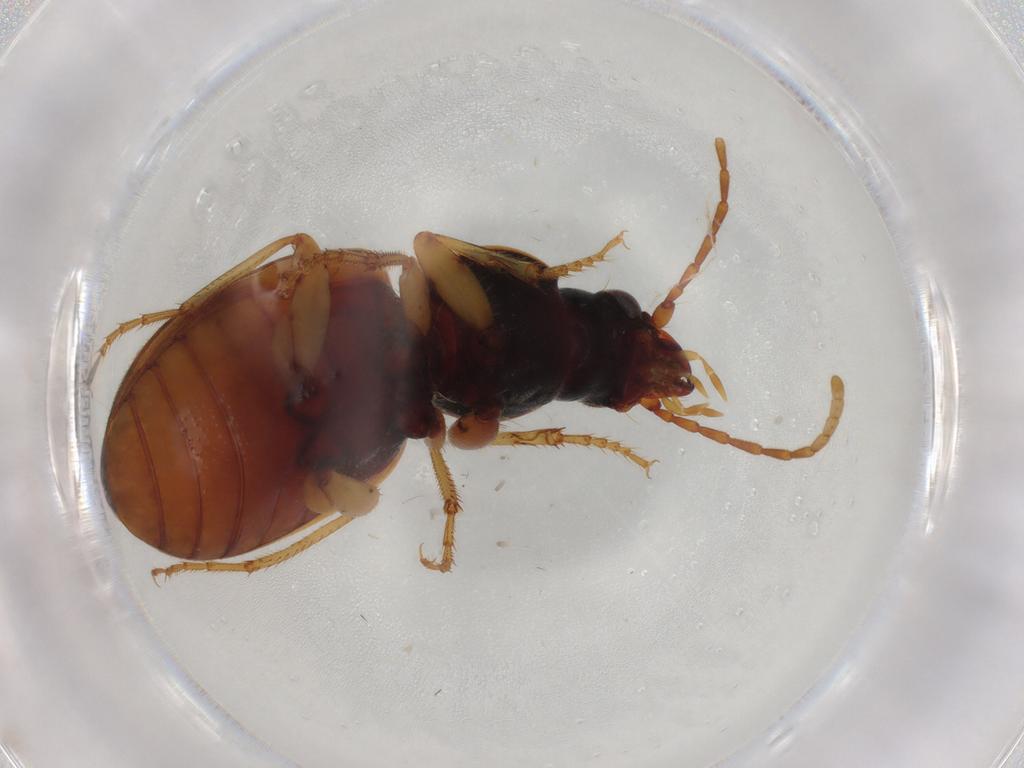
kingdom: Animalia
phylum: Arthropoda
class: Insecta
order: Coleoptera
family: Carabidae
